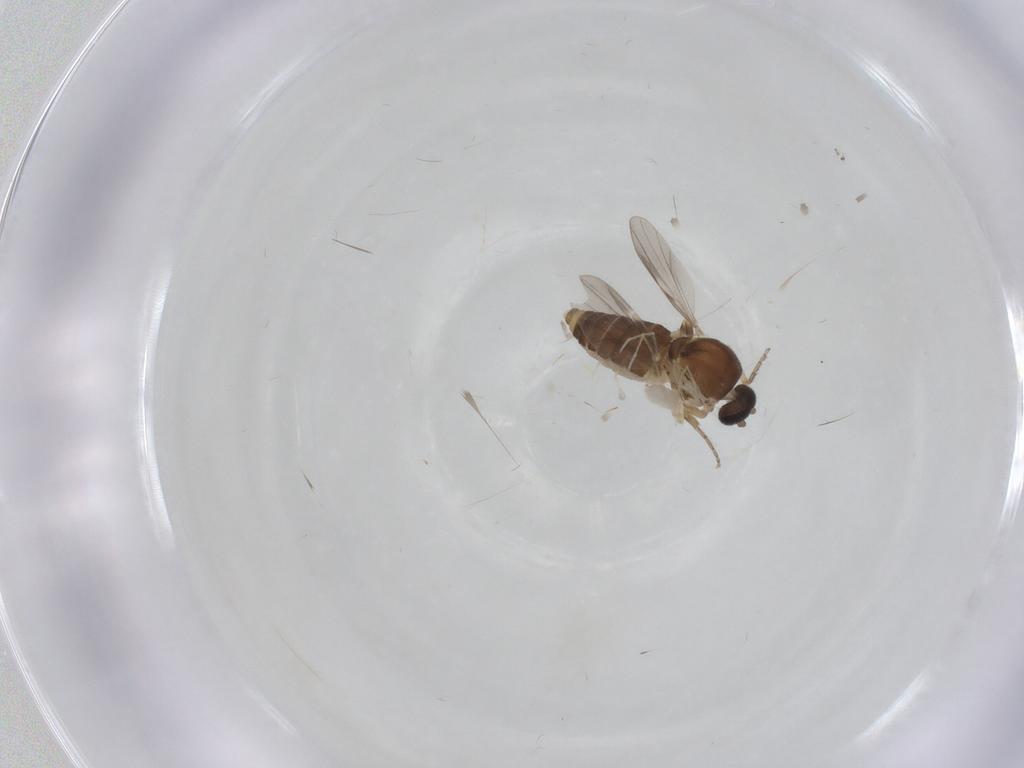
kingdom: Animalia
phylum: Arthropoda
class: Insecta
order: Diptera
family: Ceratopogonidae
